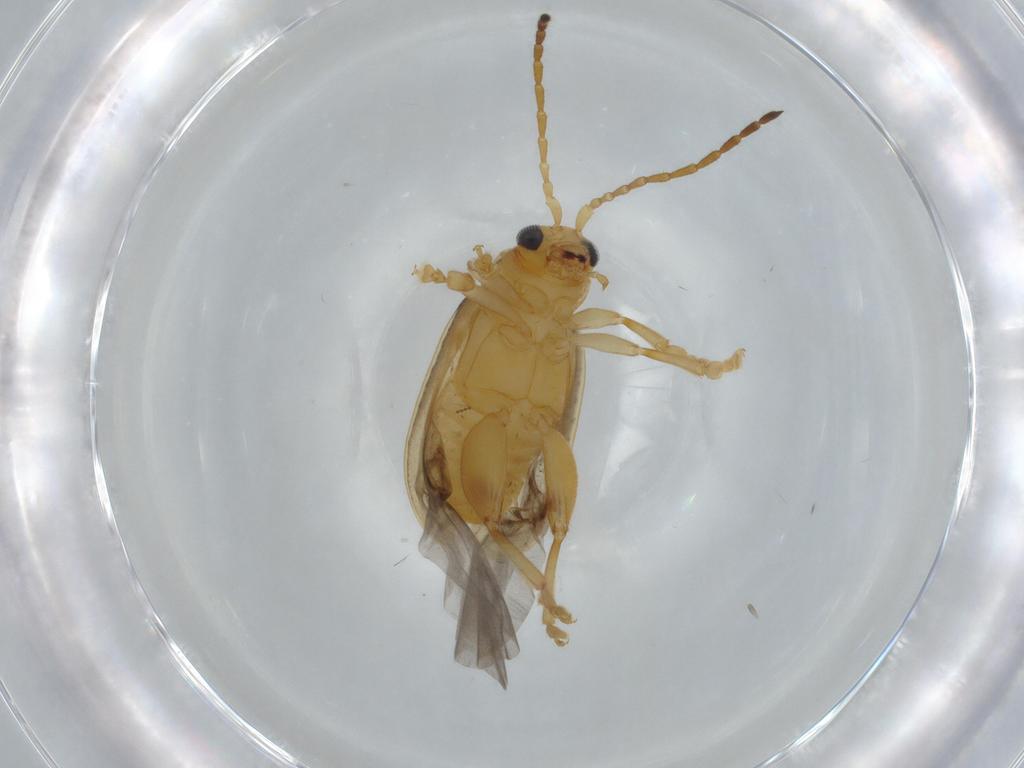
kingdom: Animalia
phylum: Arthropoda
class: Insecta
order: Coleoptera
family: Chrysomelidae
